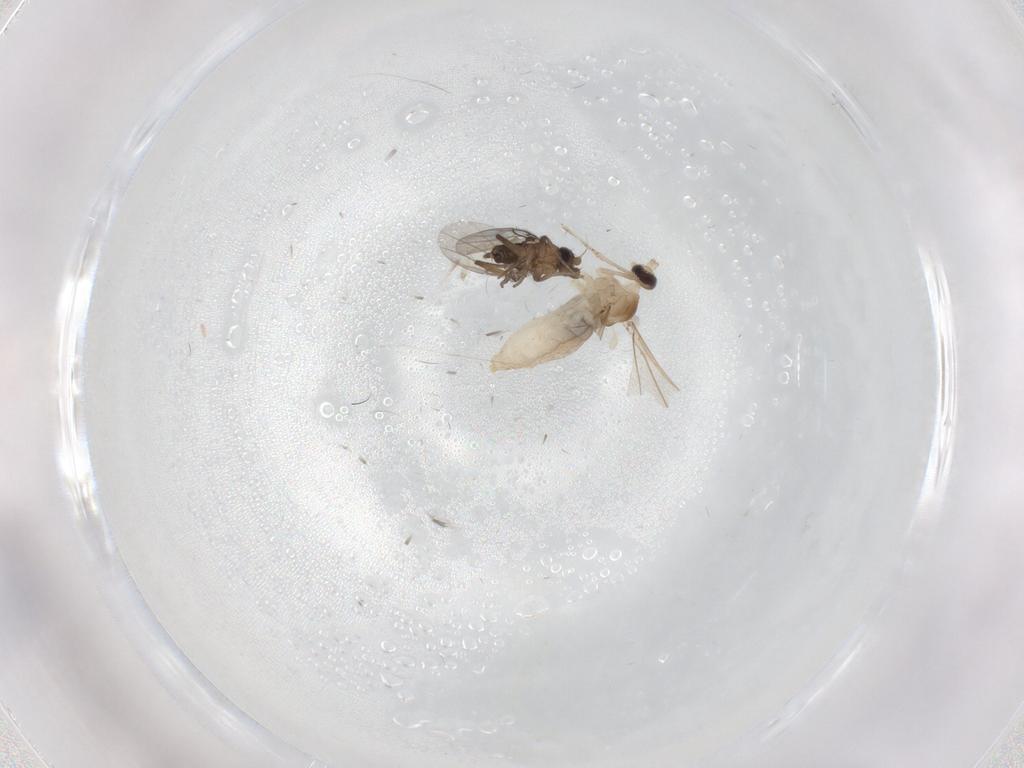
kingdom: Animalia
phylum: Arthropoda
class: Insecta
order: Diptera
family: Cecidomyiidae
